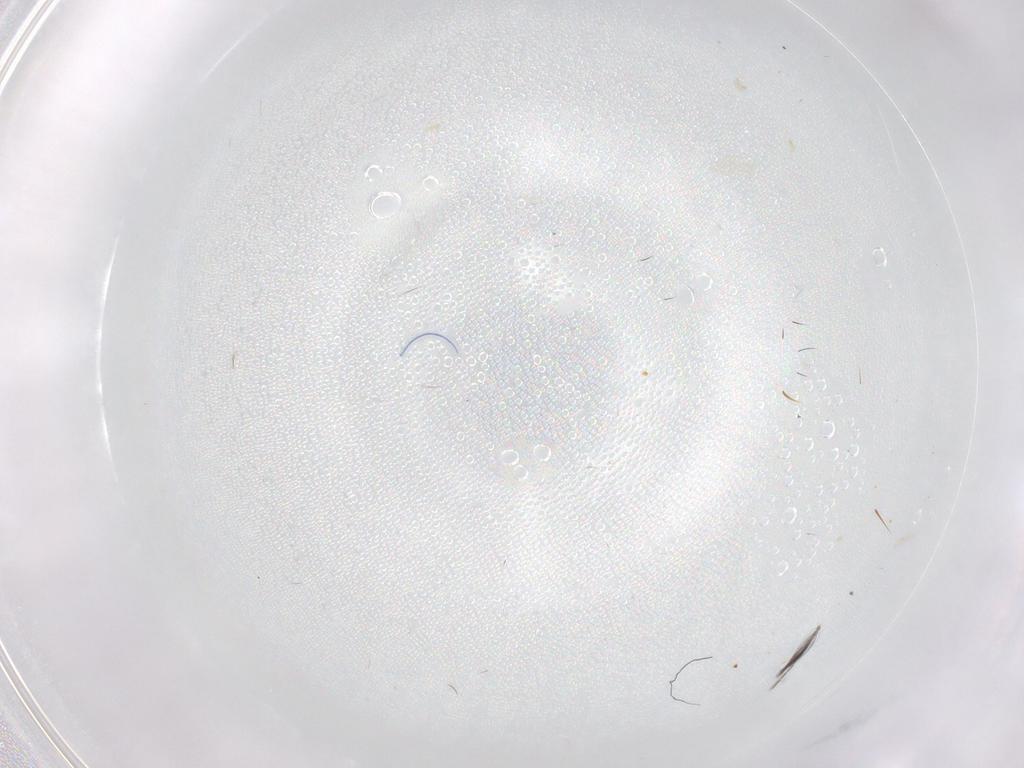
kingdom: Animalia
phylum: Arthropoda
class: Insecta
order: Diptera
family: Cecidomyiidae
